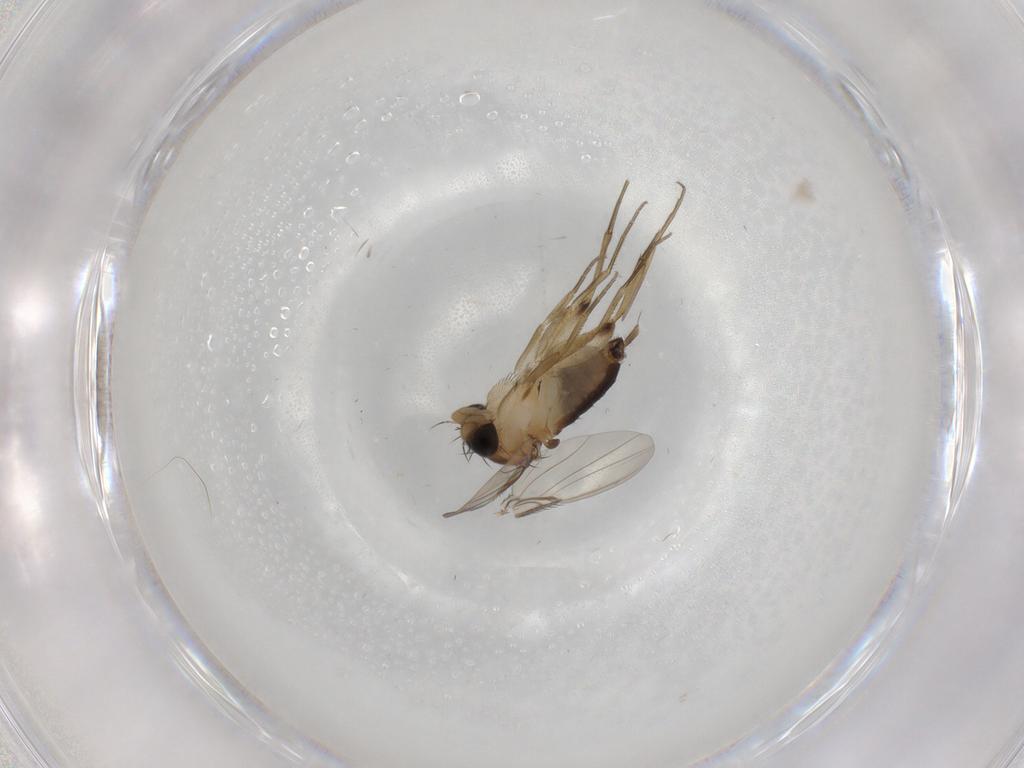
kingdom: Animalia
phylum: Arthropoda
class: Insecta
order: Diptera
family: Phoridae
